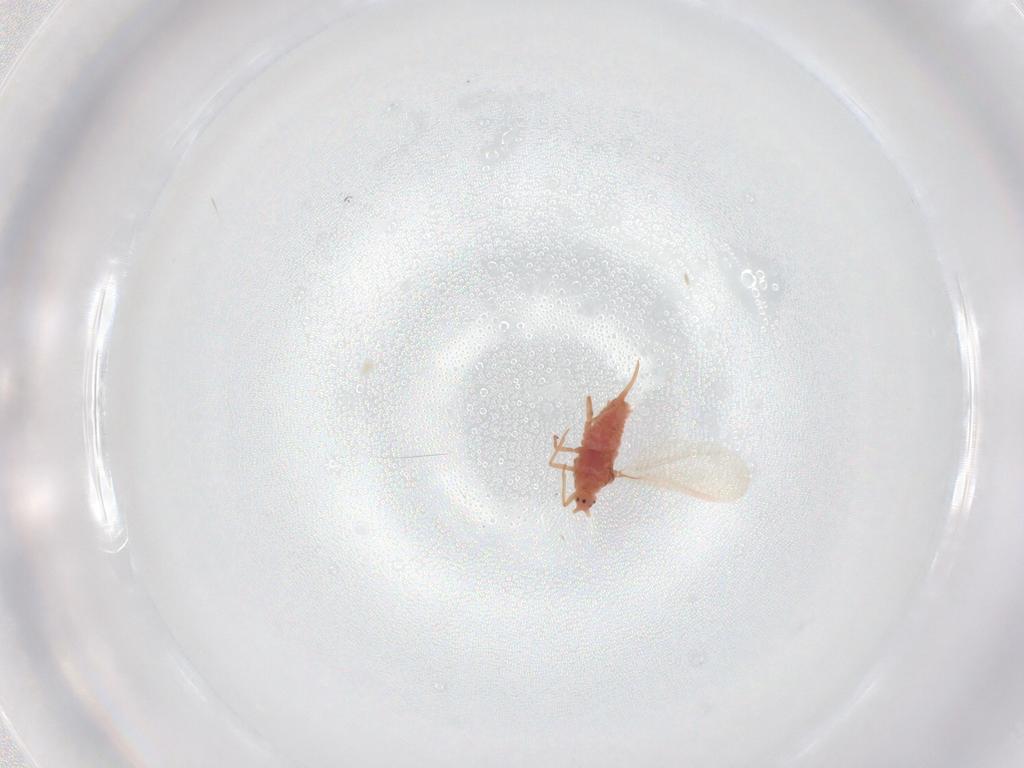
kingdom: Animalia
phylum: Arthropoda
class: Insecta
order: Hemiptera
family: Coccoidea_incertae_sedis
